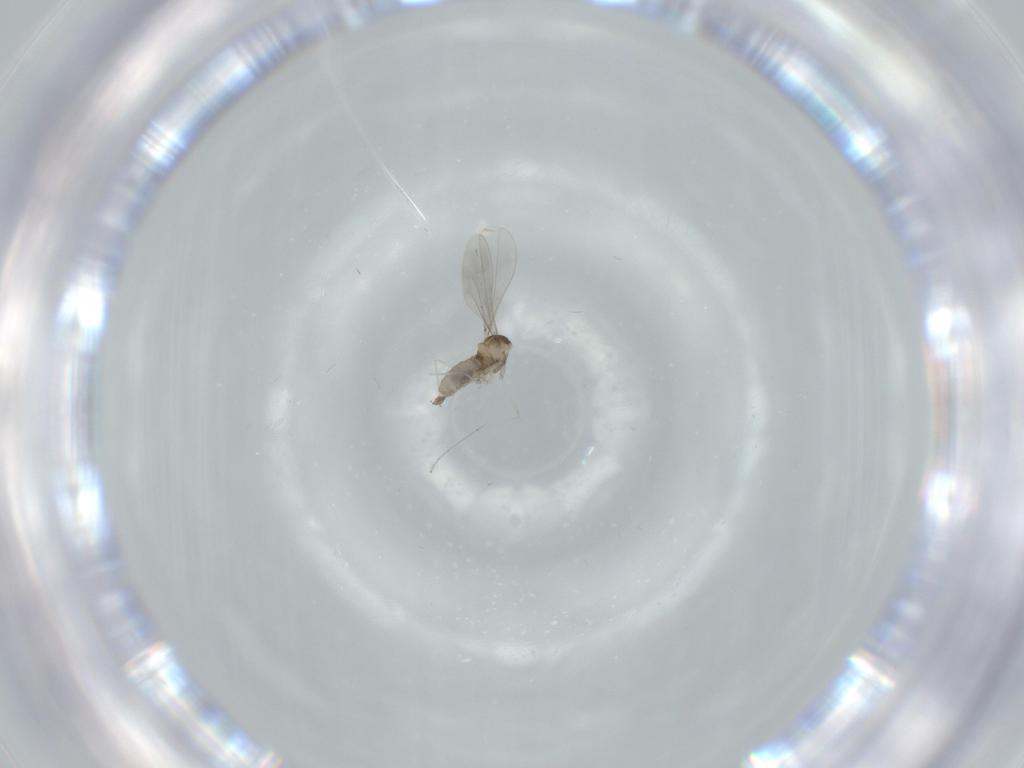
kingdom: Animalia
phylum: Arthropoda
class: Insecta
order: Diptera
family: Cecidomyiidae
